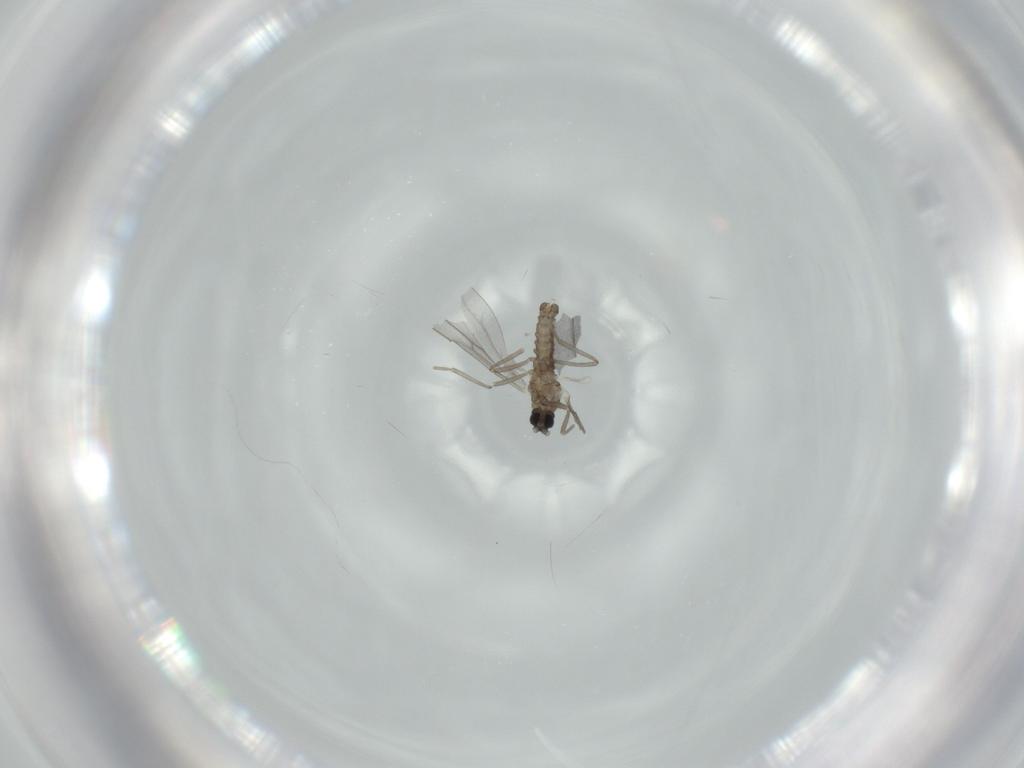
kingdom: Animalia
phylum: Arthropoda
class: Insecta
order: Diptera
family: Cecidomyiidae
